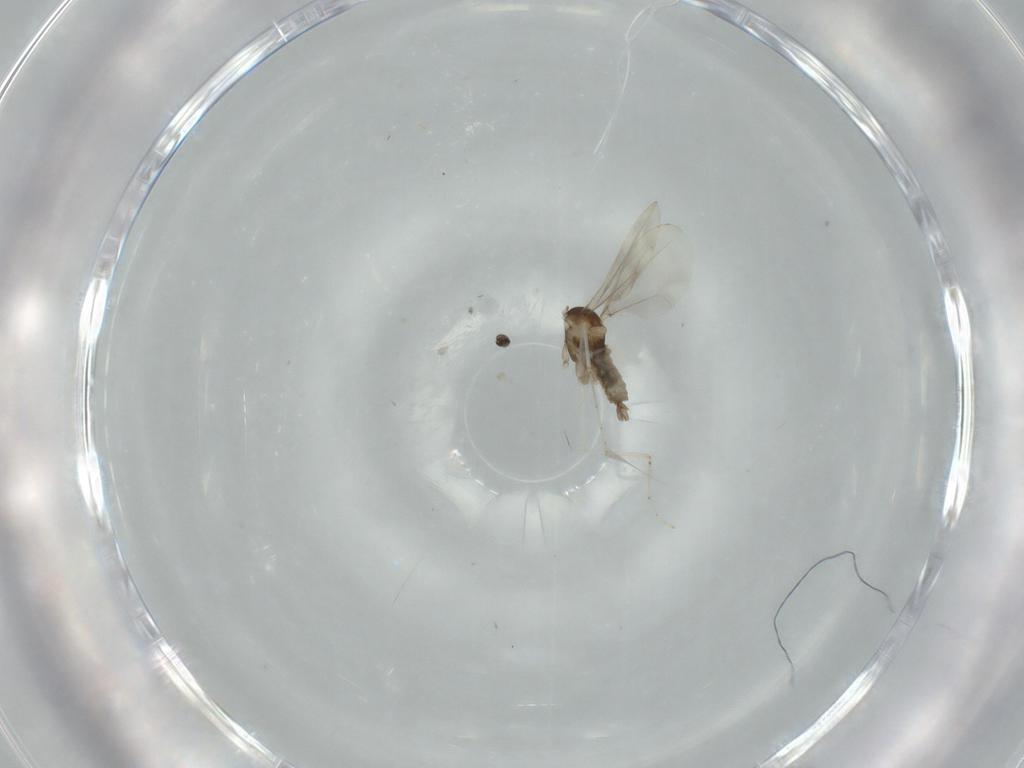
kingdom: Animalia
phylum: Arthropoda
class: Insecta
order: Diptera
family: Cecidomyiidae
